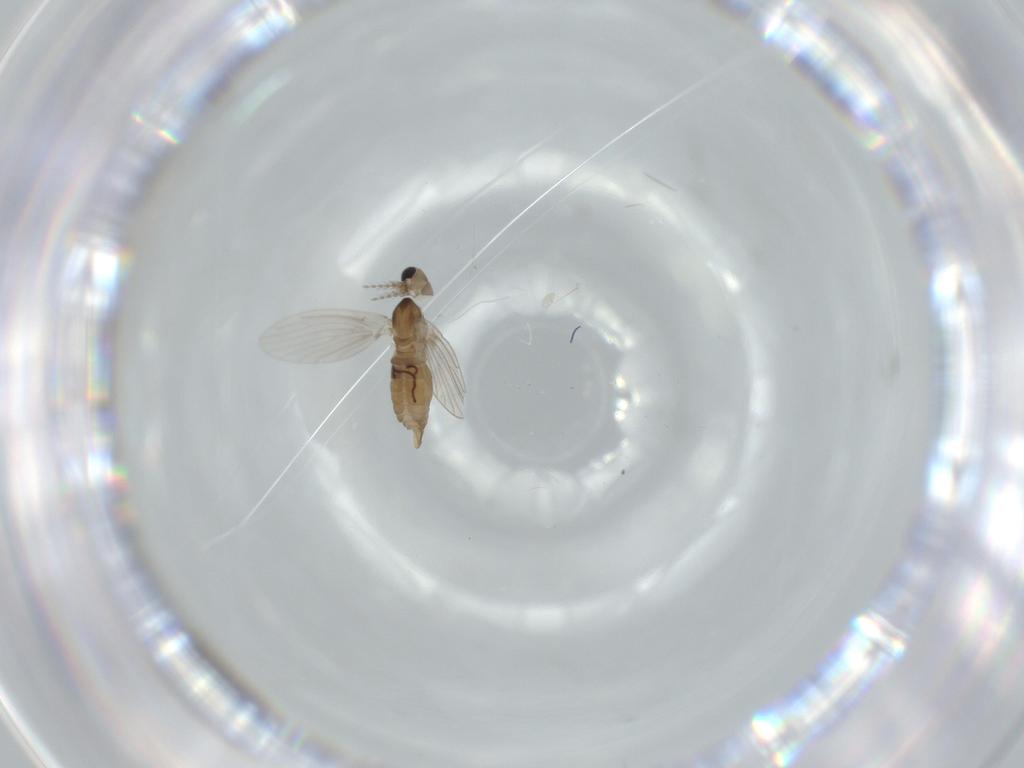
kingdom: Animalia
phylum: Arthropoda
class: Insecta
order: Diptera
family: Psychodidae
